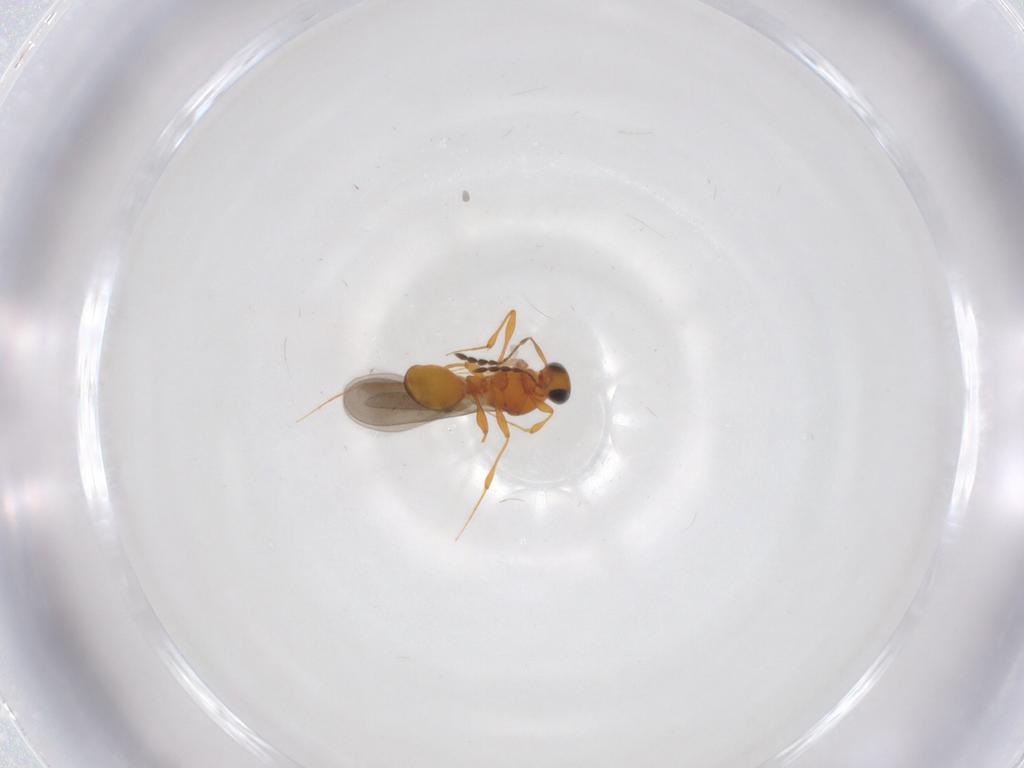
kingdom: Animalia
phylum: Arthropoda
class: Insecta
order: Hymenoptera
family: Platygastridae
